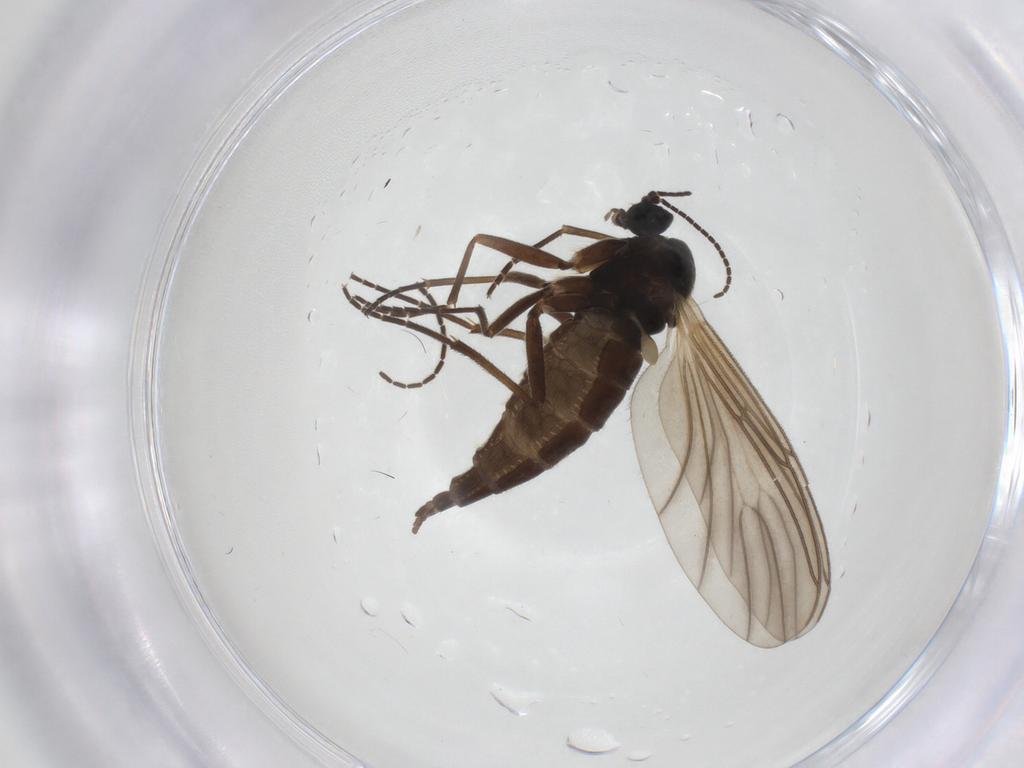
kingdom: Animalia
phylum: Arthropoda
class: Insecta
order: Diptera
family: Sciaridae
